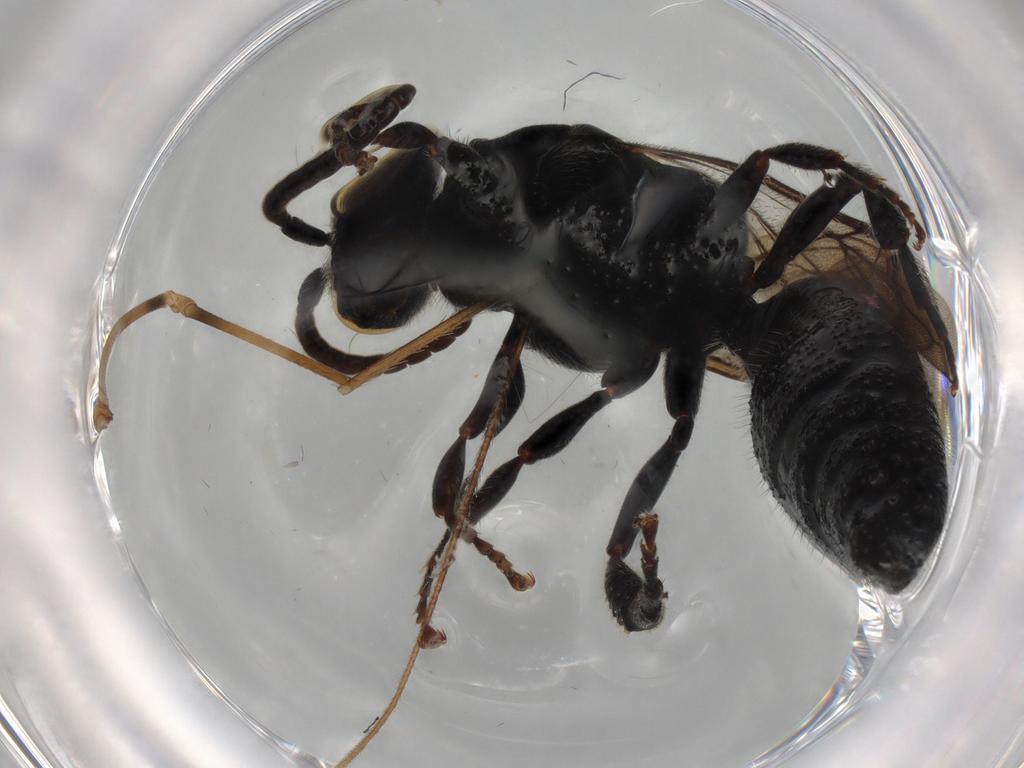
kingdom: Animalia
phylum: Arthropoda
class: Insecta
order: Hymenoptera
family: Tiphiidae
